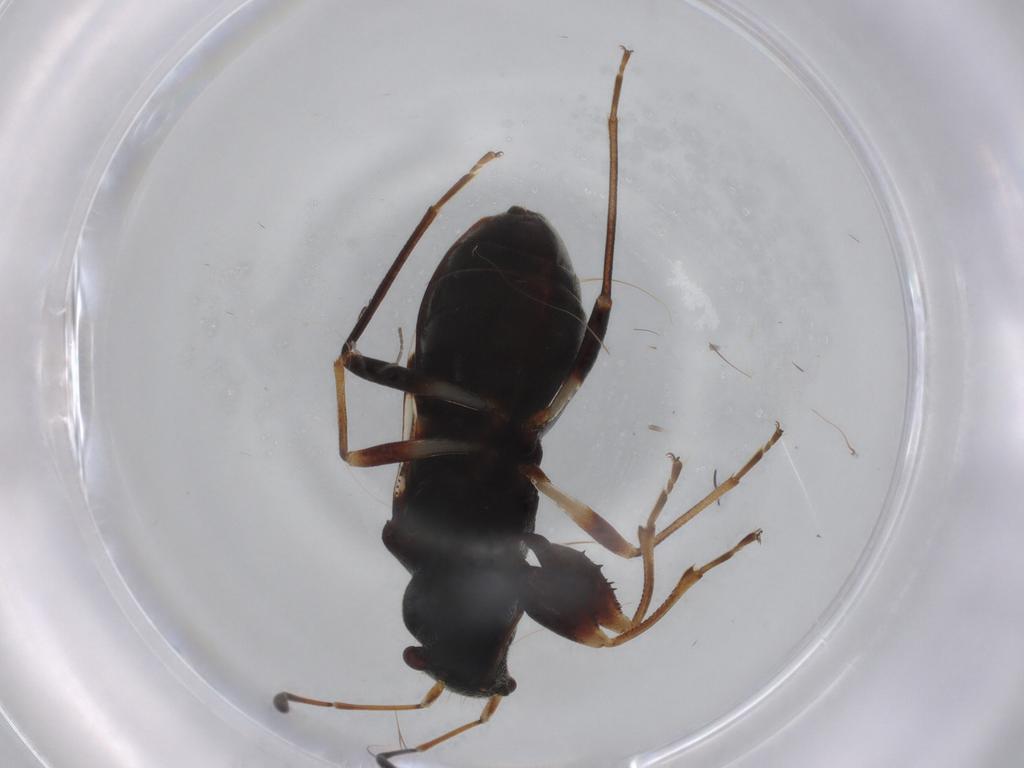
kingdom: Animalia
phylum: Arthropoda
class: Insecta
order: Hemiptera
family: Rhyparochromidae
